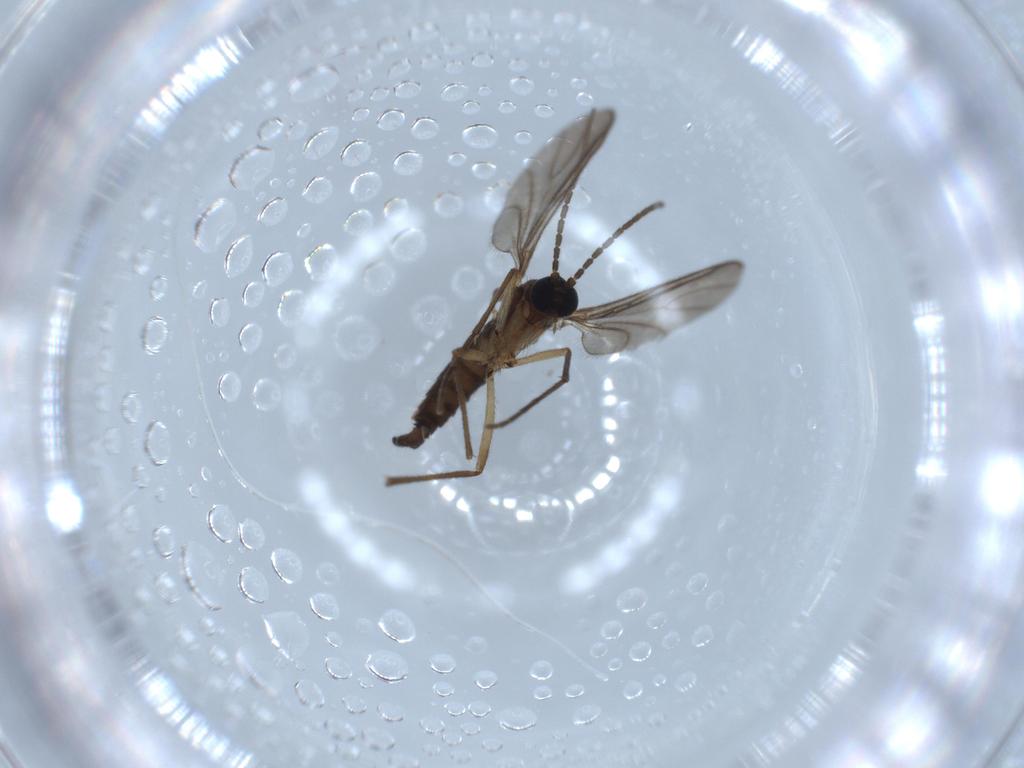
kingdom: Animalia
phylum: Arthropoda
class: Insecta
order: Diptera
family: Sciaridae
